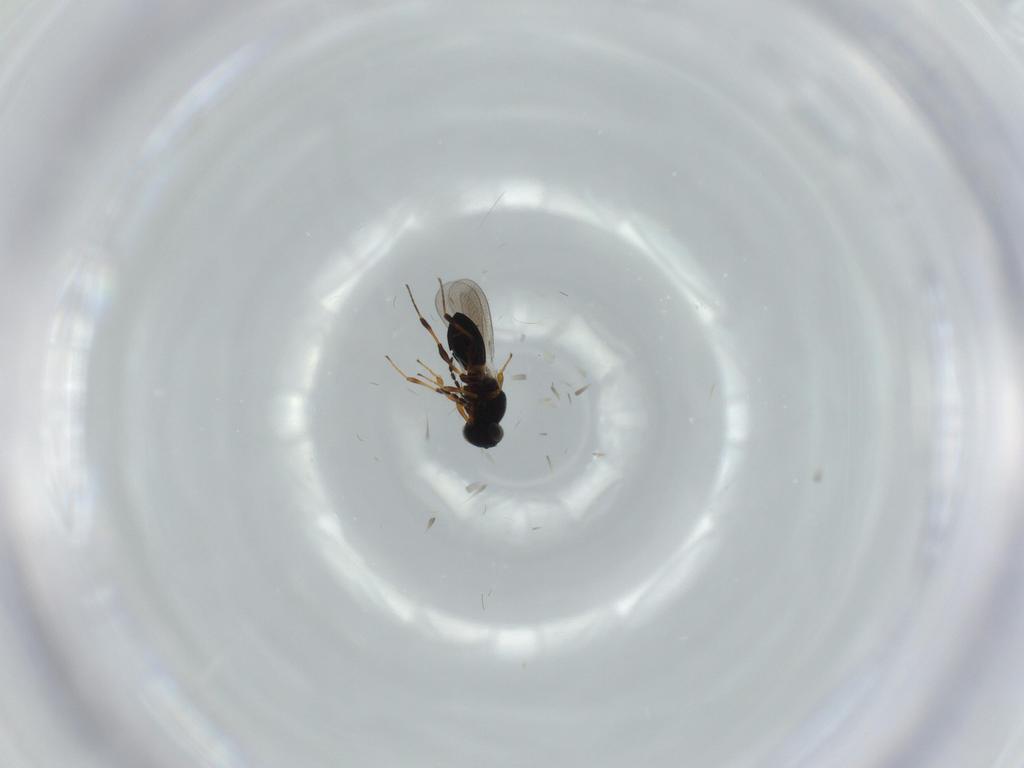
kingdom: Animalia
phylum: Arthropoda
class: Insecta
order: Hymenoptera
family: Platygastridae
